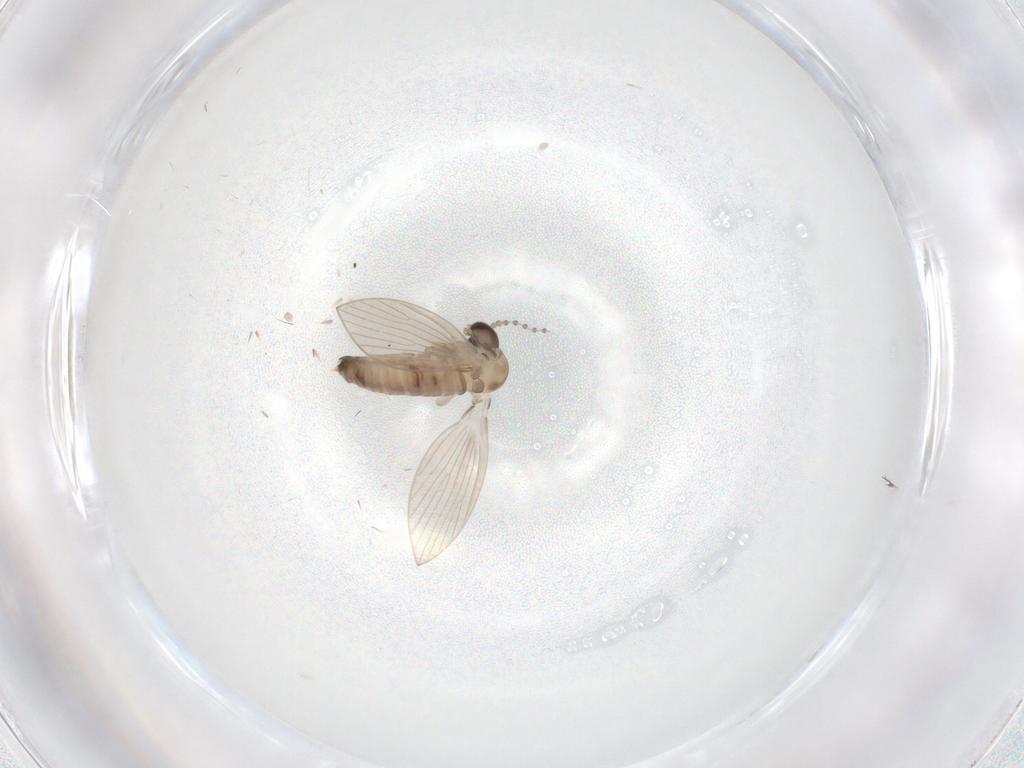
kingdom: Animalia
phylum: Arthropoda
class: Insecta
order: Diptera
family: Psychodidae
